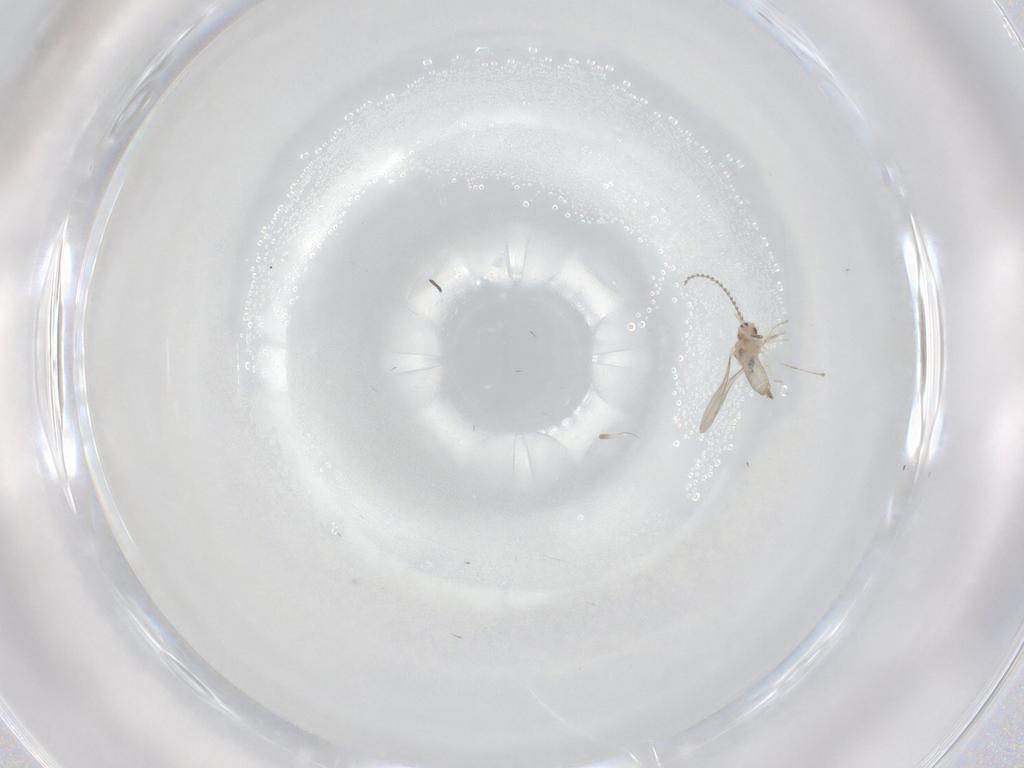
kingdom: Animalia
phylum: Arthropoda
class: Insecta
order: Diptera
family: Cecidomyiidae
